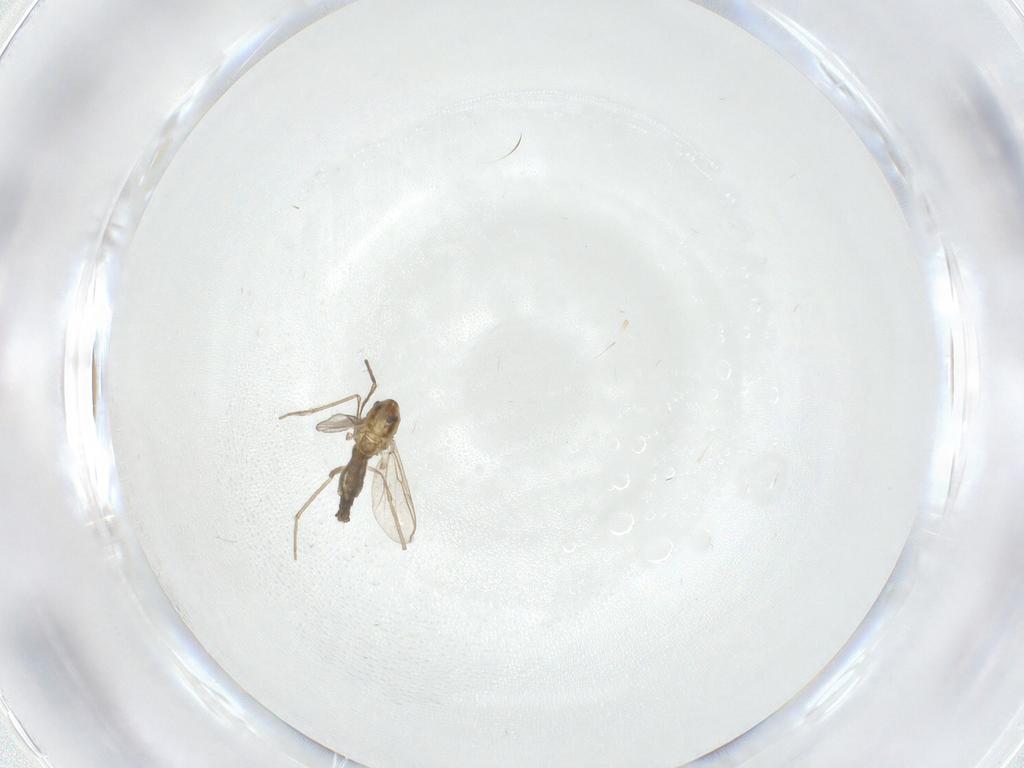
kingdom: Animalia
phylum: Arthropoda
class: Insecta
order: Diptera
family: Chironomidae
